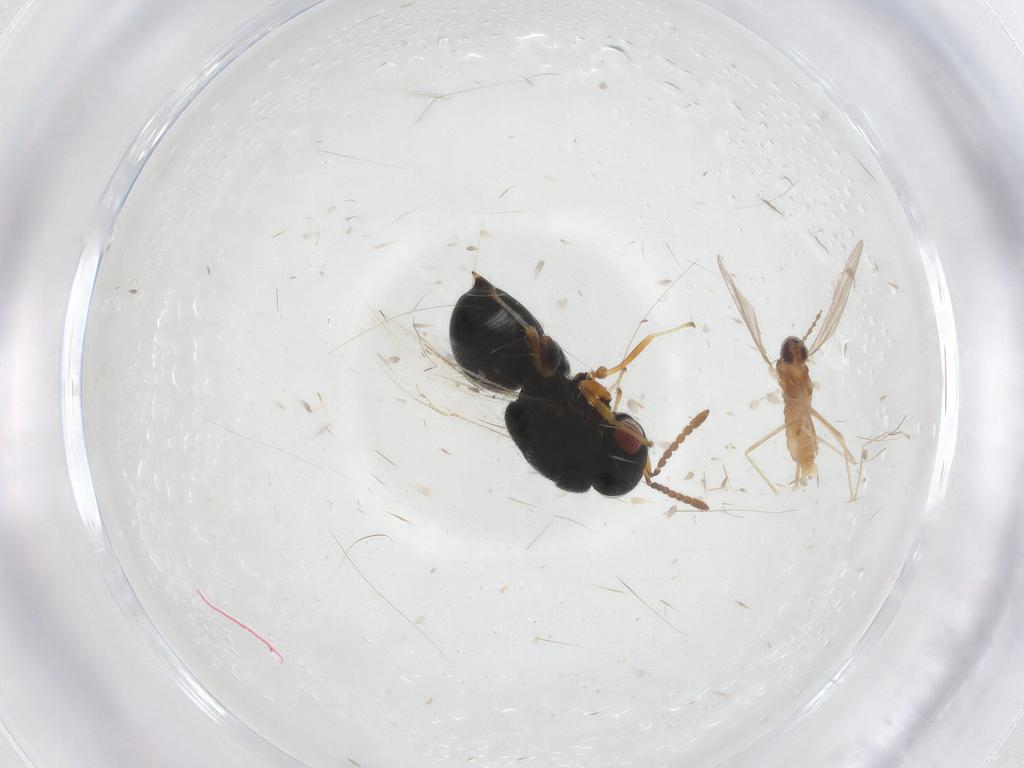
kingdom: Animalia
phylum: Arthropoda
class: Insecta
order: Diptera
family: Cecidomyiidae
